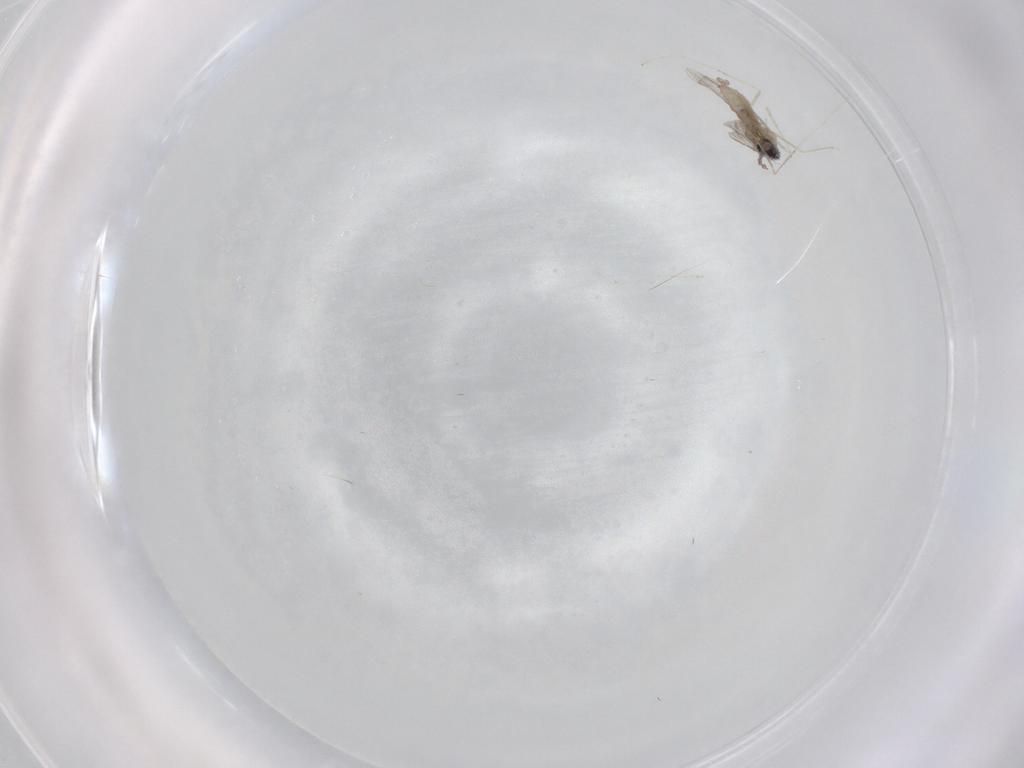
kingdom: Animalia
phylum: Arthropoda
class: Insecta
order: Diptera
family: Cecidomyiidae
